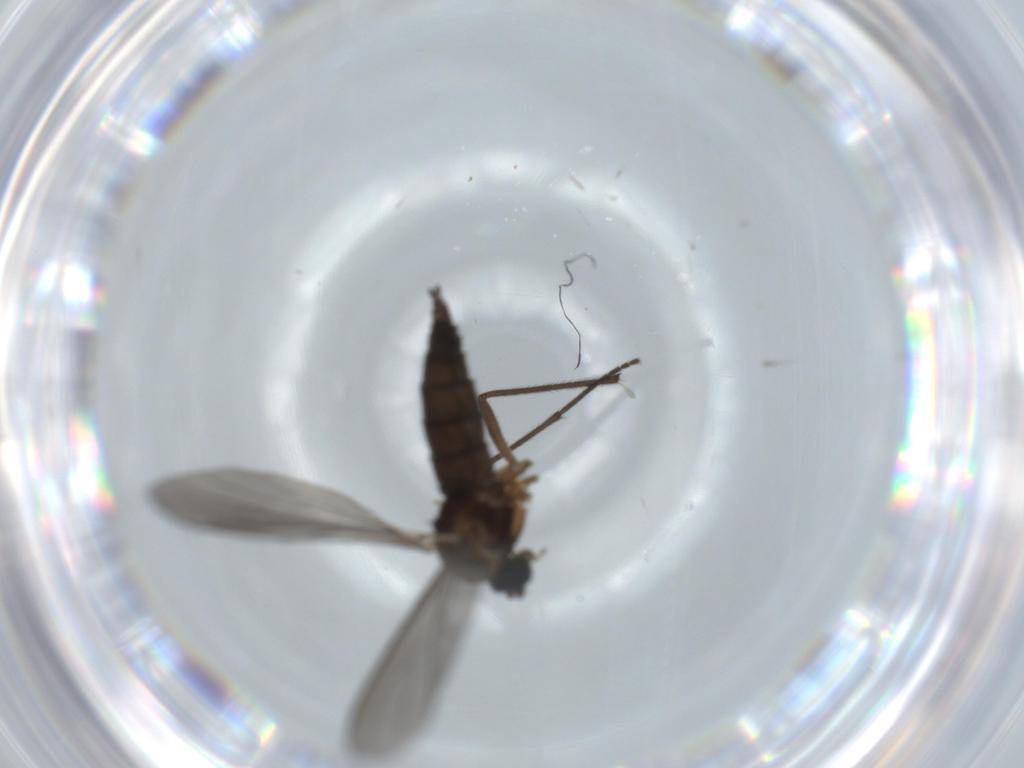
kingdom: Animalia
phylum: Arthropoda
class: Insecta
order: Diptera
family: Sciaridae
